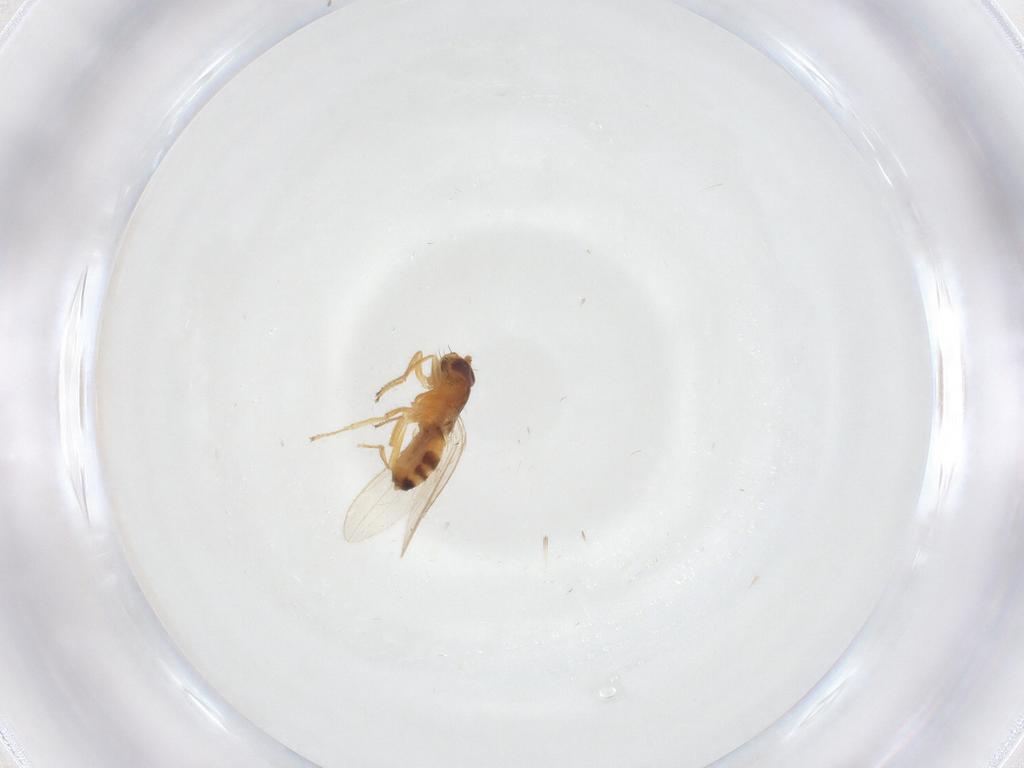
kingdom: Animalia
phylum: Arthropoda
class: Insecta
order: Diptera
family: Periscelididae
